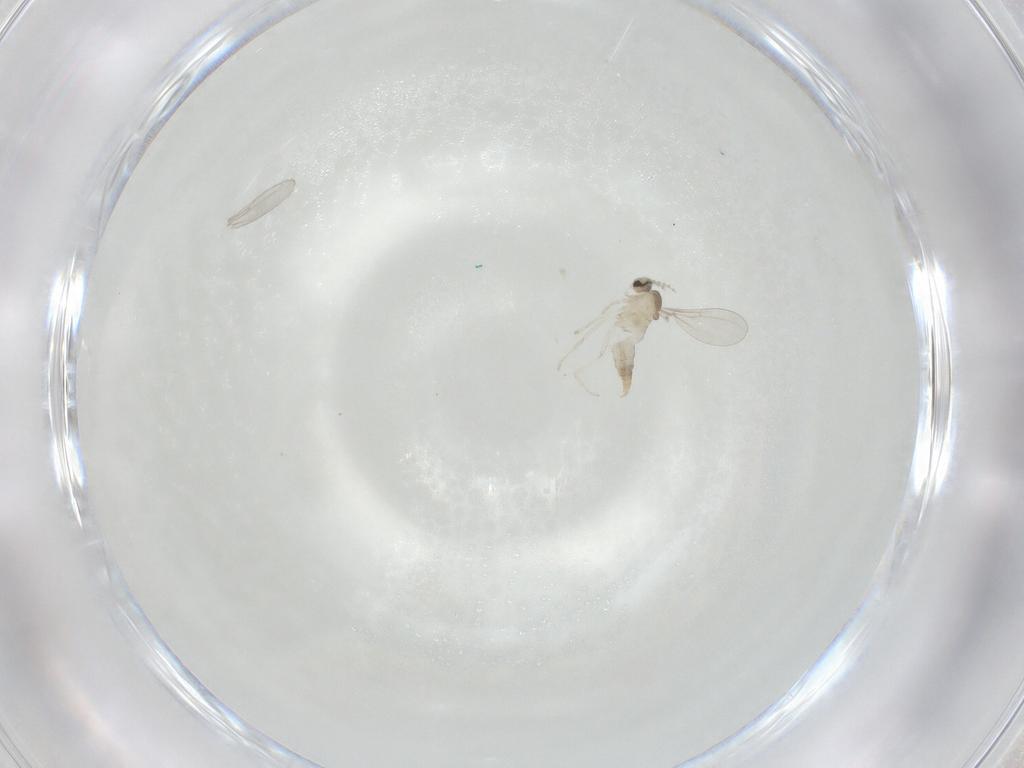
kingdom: Animalia
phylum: Arthropoda
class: Insecta
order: Diptera
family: Cecidomyiidae
